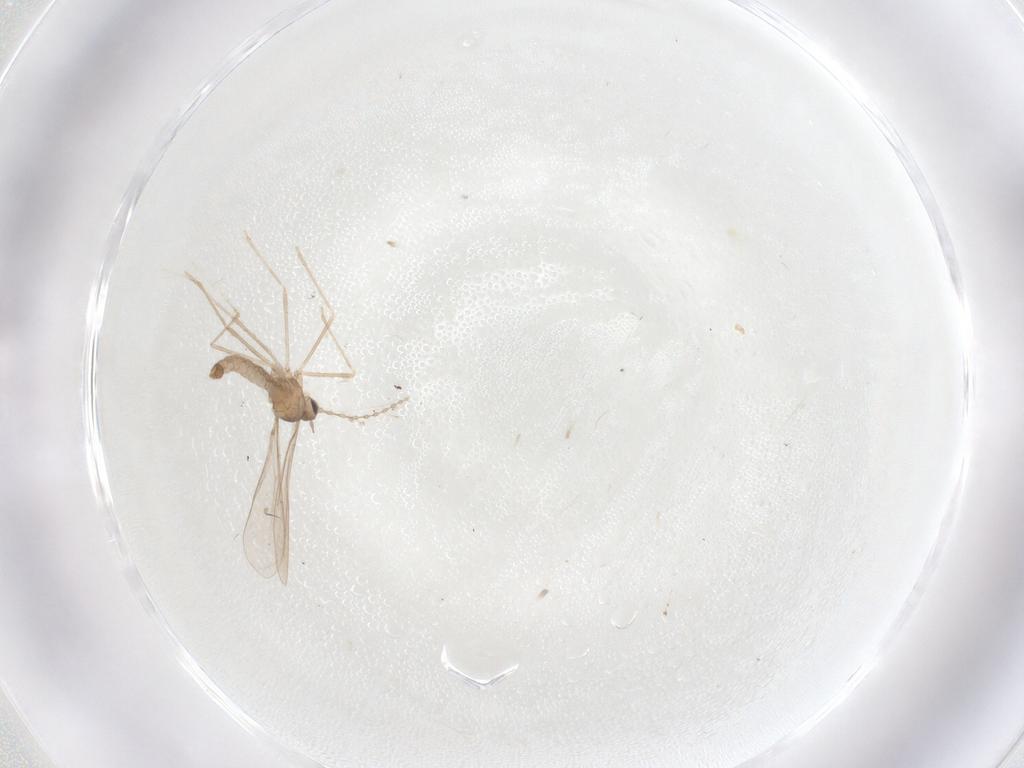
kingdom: Animalia
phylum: Arthropoda
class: Insecta
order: Diptera
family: Cecidomyiidae
